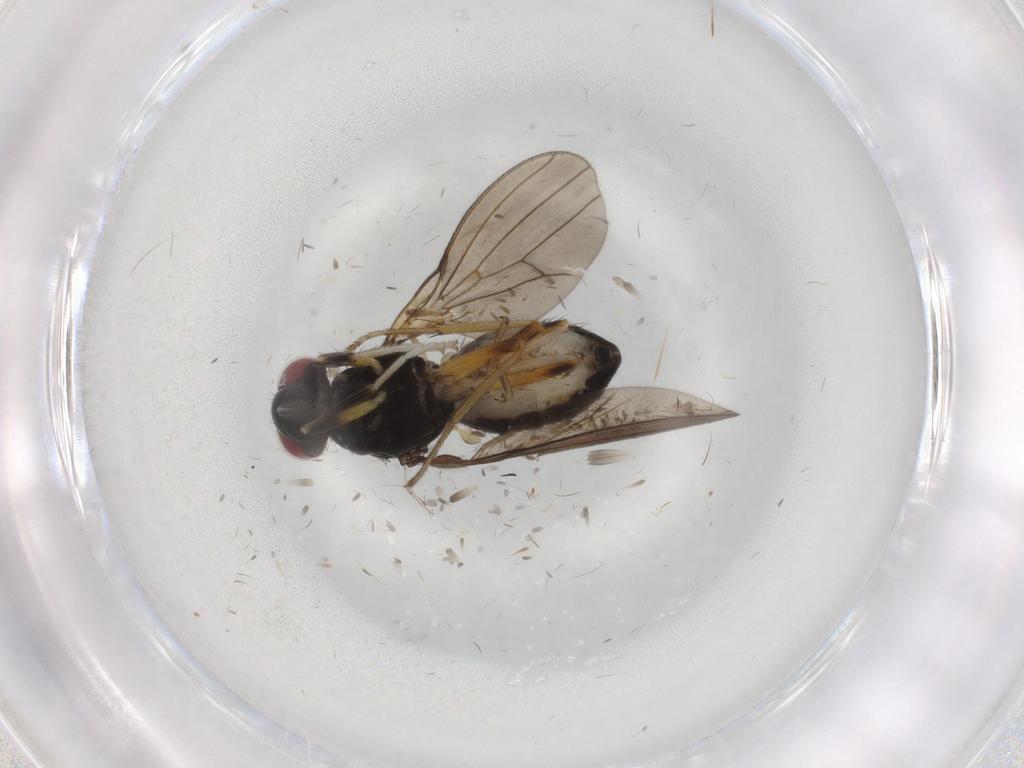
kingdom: Animalia
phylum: Arthropoda
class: Insecta
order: Diptera
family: Lauxaniidae
